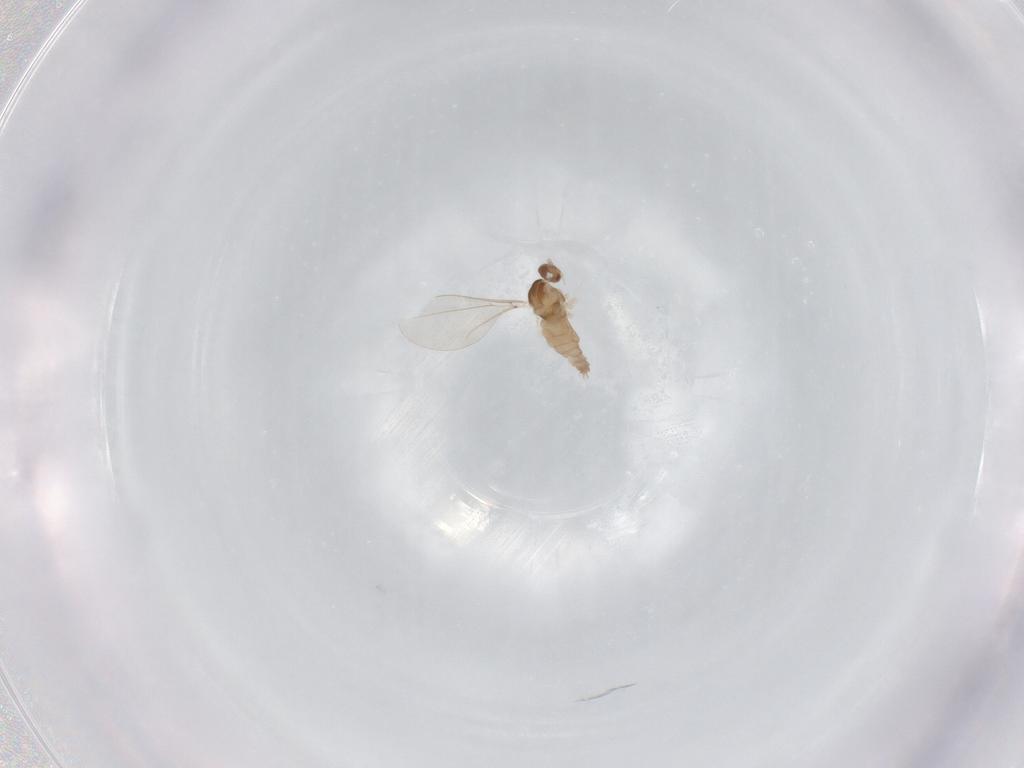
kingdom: Animalia
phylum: Arthropoda
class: Insecta
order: Diptera
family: Cecidomyiidae
